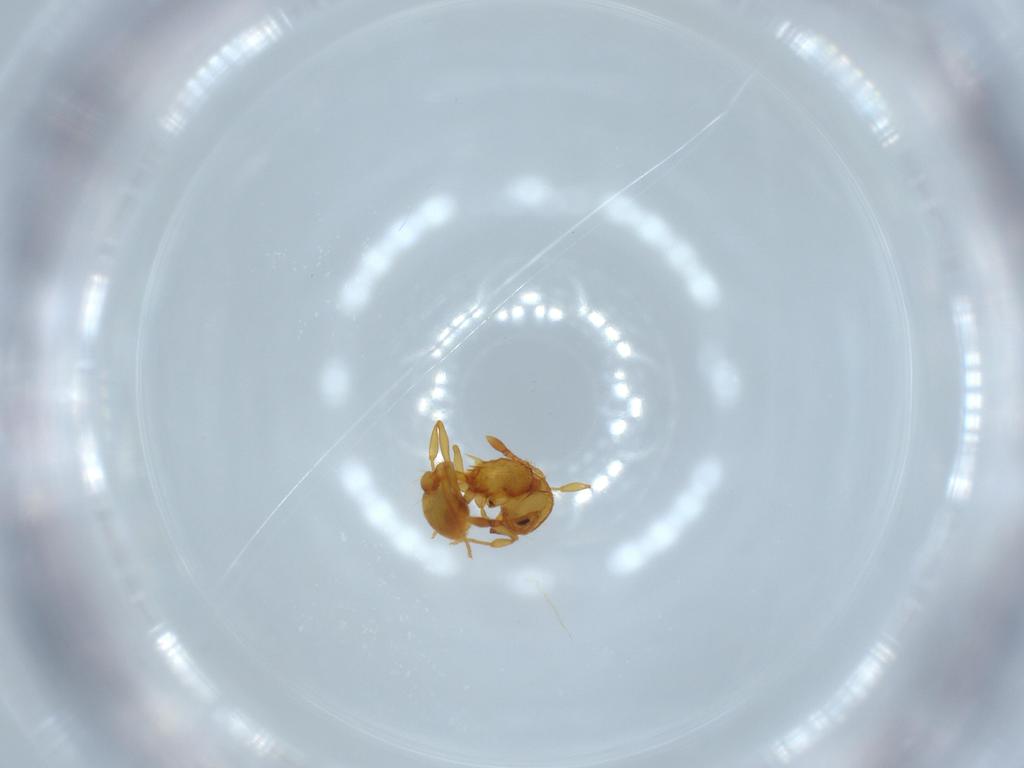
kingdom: Animalia
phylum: Arthropoda
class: Insecta
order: Hymenoptera
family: Formicidae
